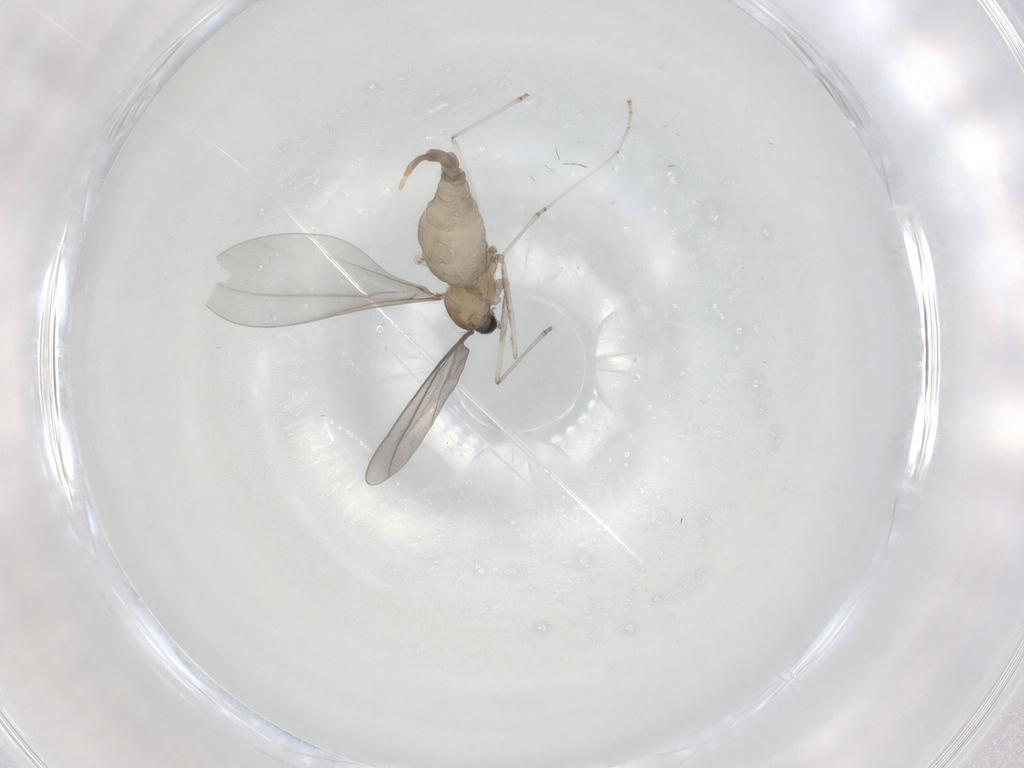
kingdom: Animalia
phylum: Arthropoda
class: Insecta
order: Diptera
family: Cecidomyiidae
